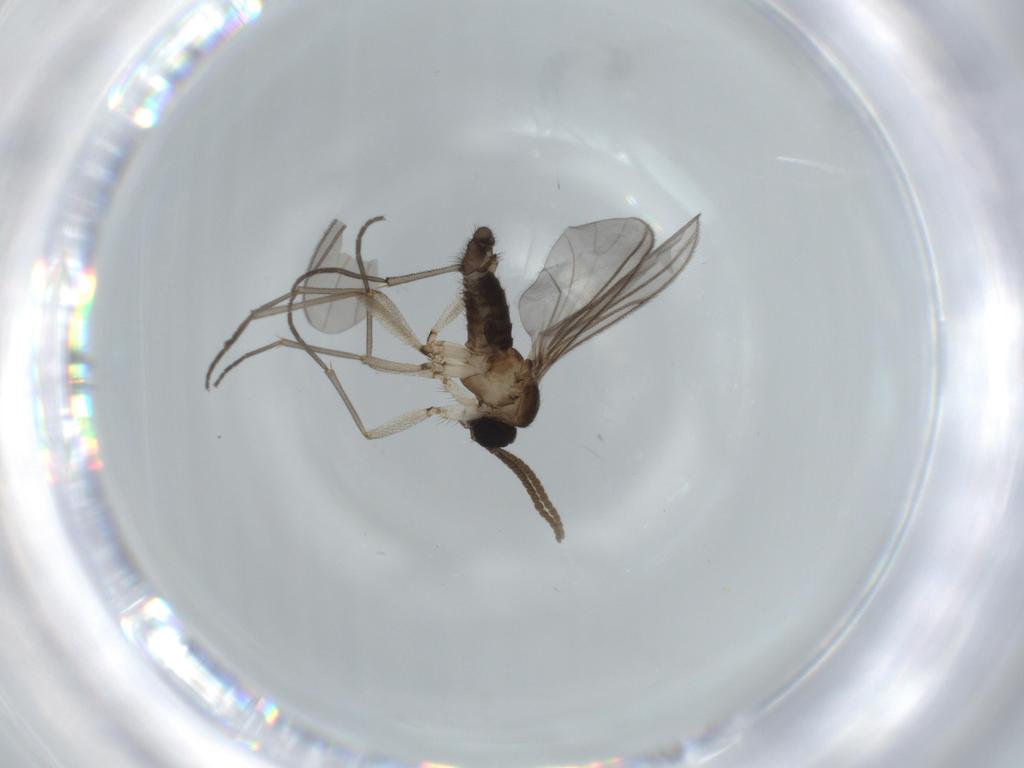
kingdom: Animalia
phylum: Arthropoda
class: Insecta
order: Diptera
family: Sciaridae
